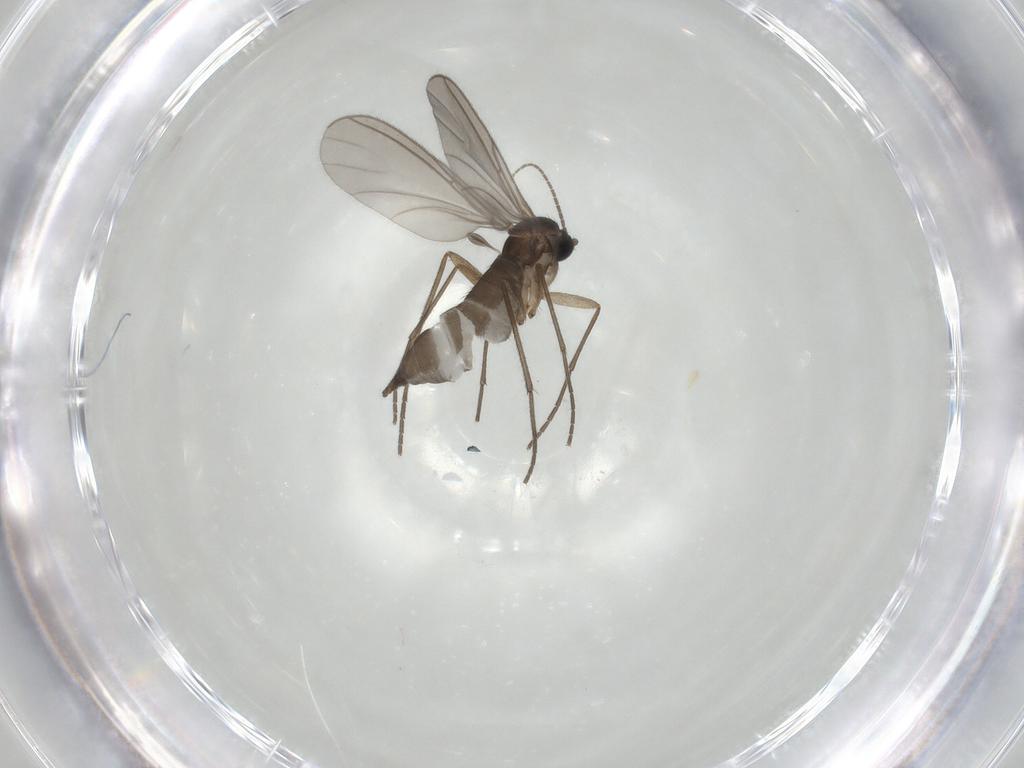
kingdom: Animalia
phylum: Arthropoda
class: Insecta
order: Diptera
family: Sciaridae
